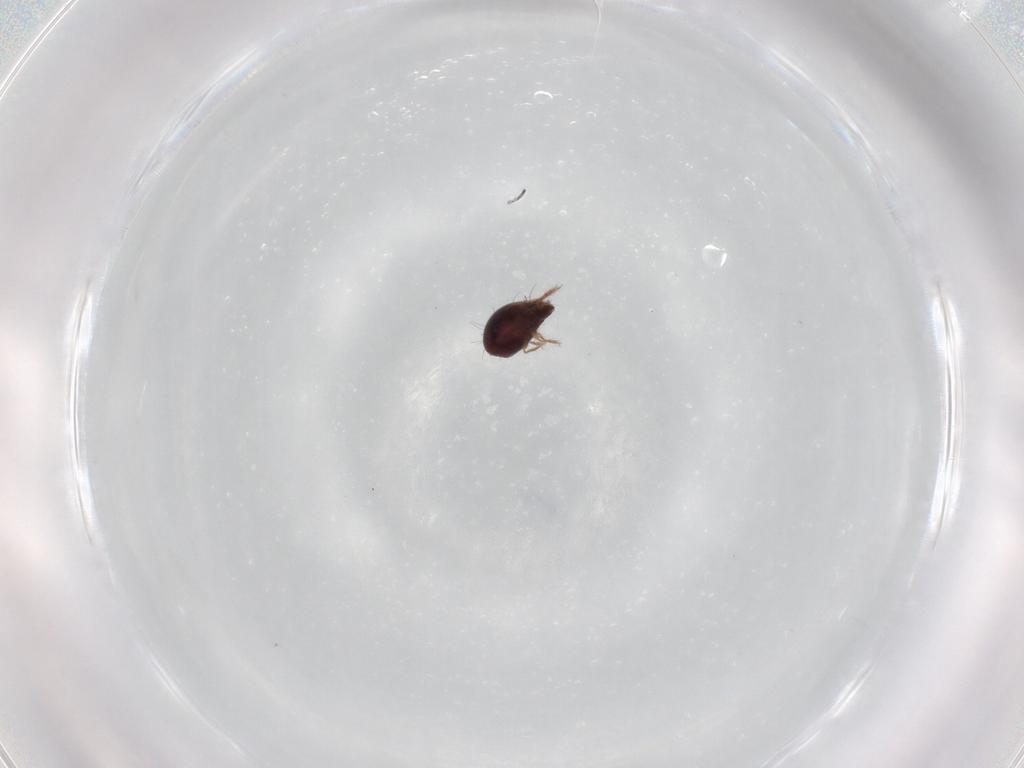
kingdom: Animalia
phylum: Arthropoda
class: Arachnida
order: Sarcoptiformes
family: Humerobatidae
